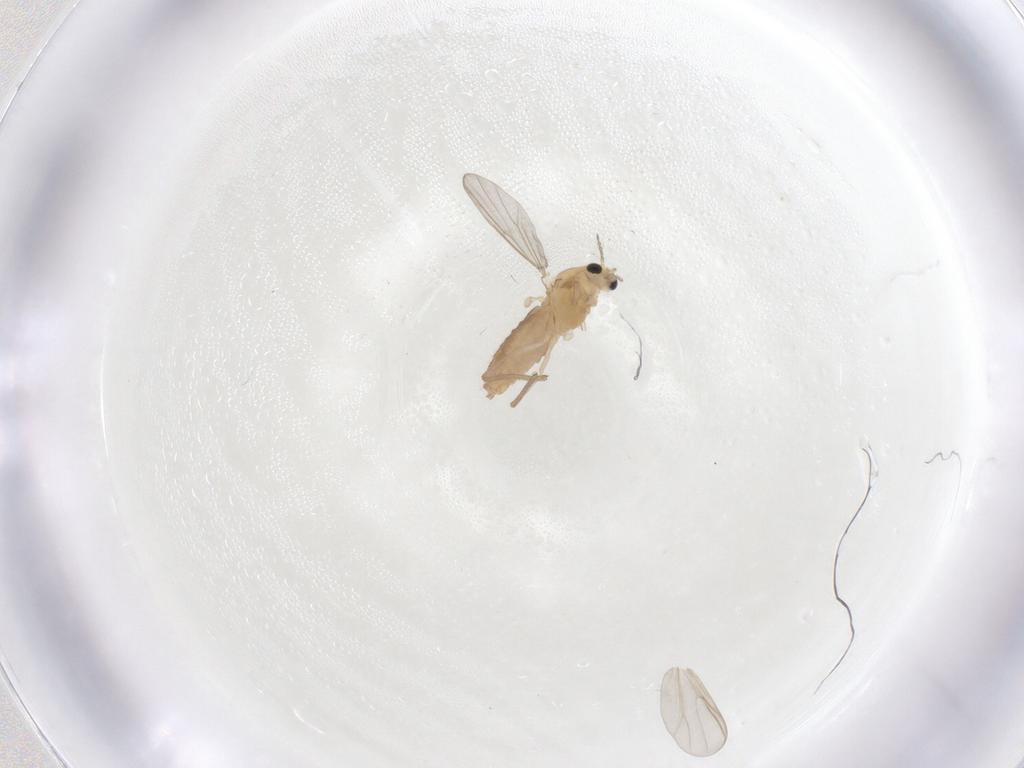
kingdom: Animalia
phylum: Arthropoda
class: Insecta
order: Diptera
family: Chironomidae
